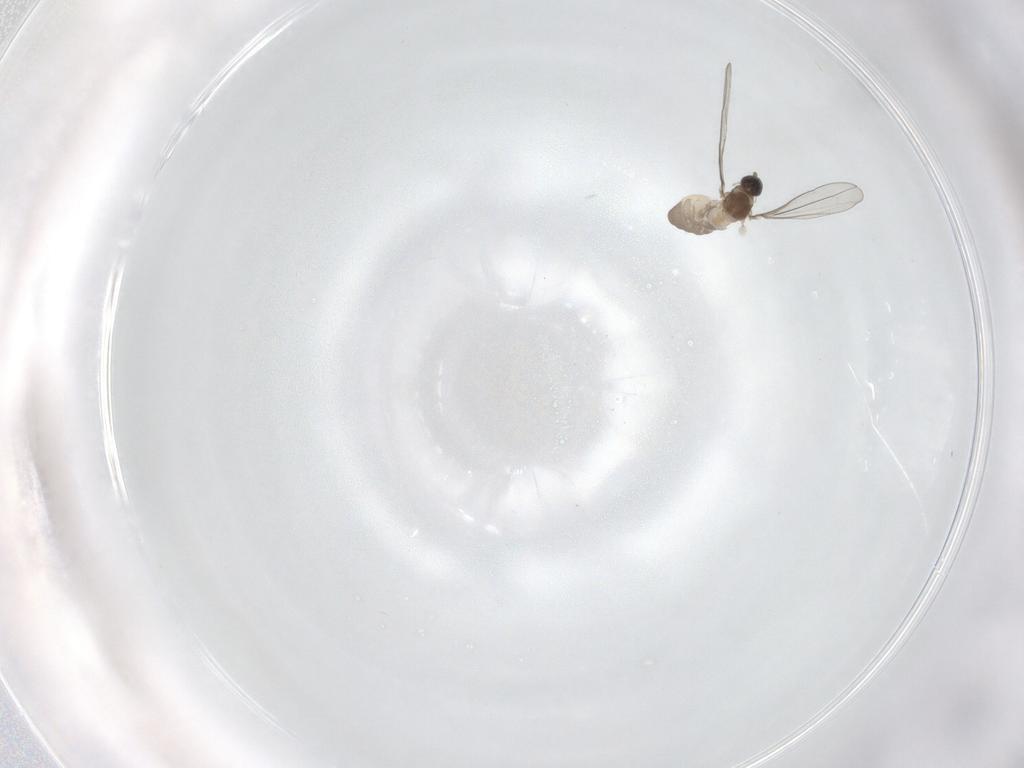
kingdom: Animalia
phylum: Arthropoda
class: Insecta
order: Diptera
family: Cecidomyiidae
